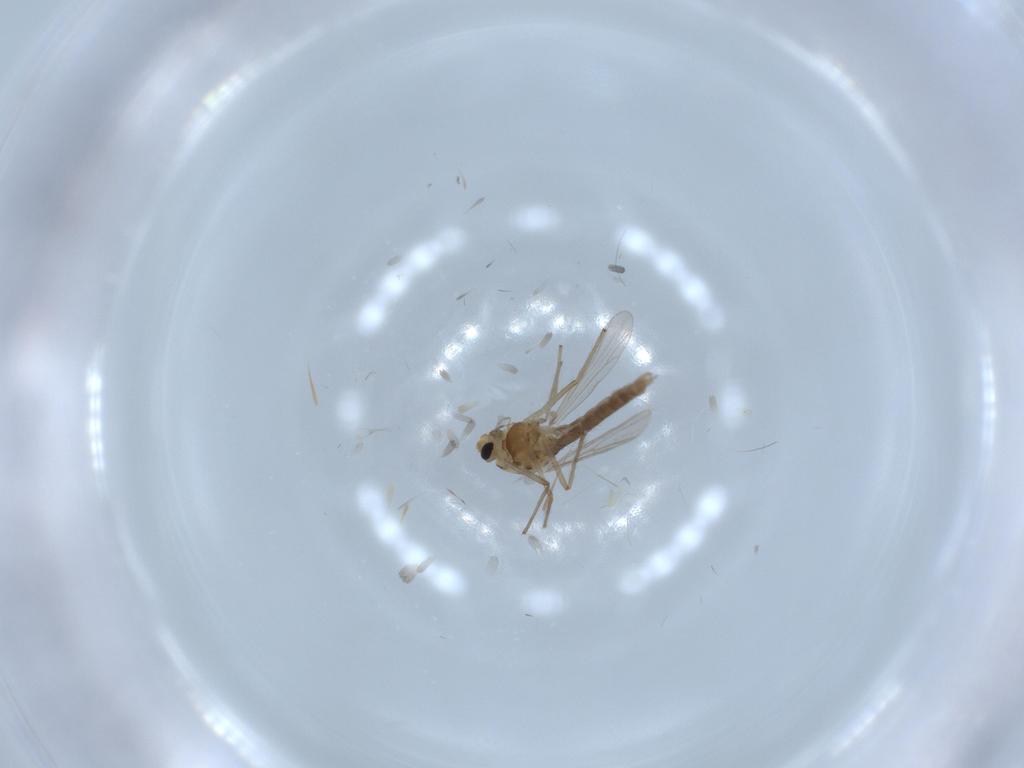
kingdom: Animalia
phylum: Arthropoda
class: Insecta
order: Diptera
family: Chironomidae
